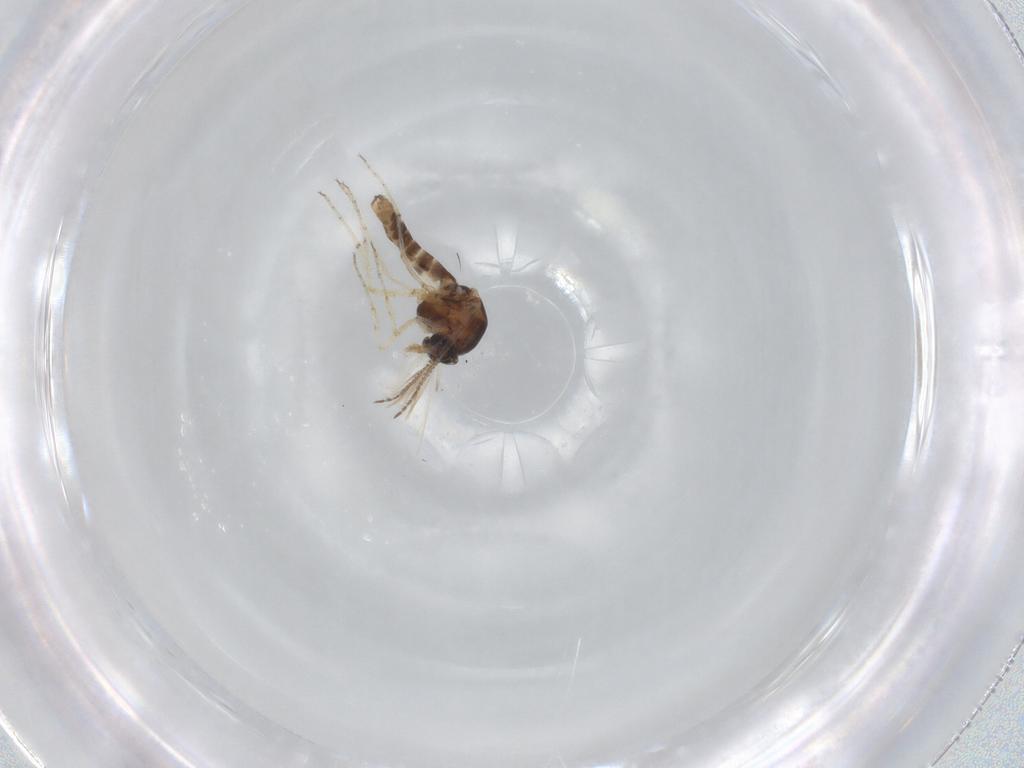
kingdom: Animalia
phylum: Arthropoda
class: Insecta
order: Diptera
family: Ceratopogonidae
